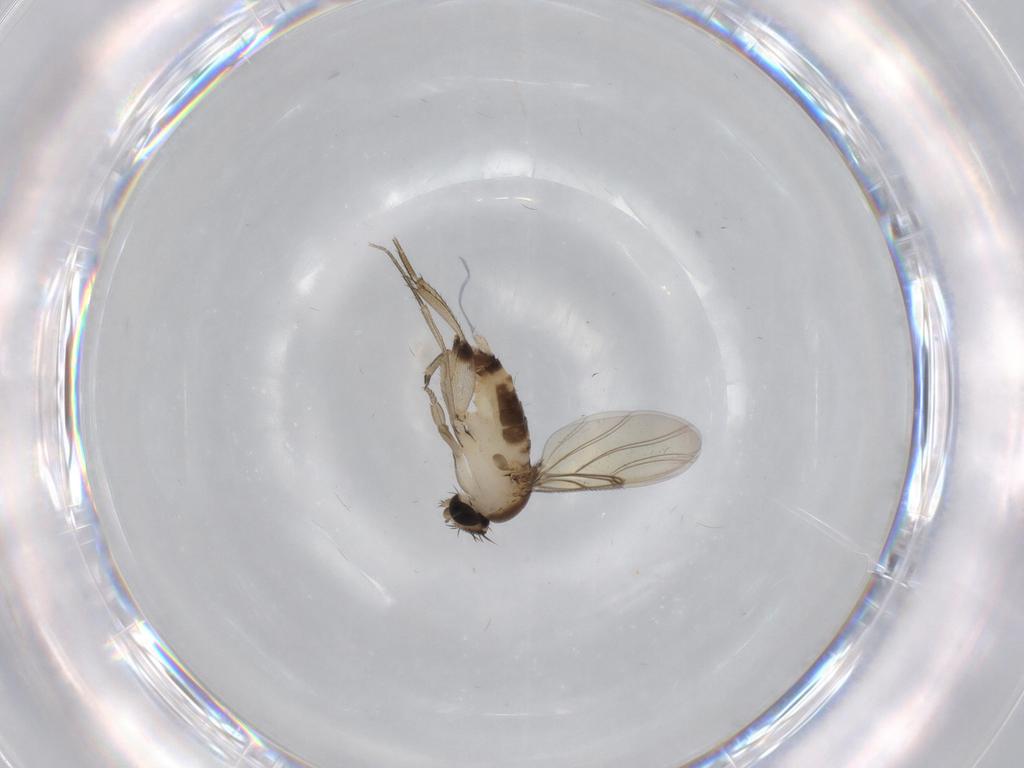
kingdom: Animalia
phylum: Arthropoda
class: Insecta
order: Diptera
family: Phoridae
